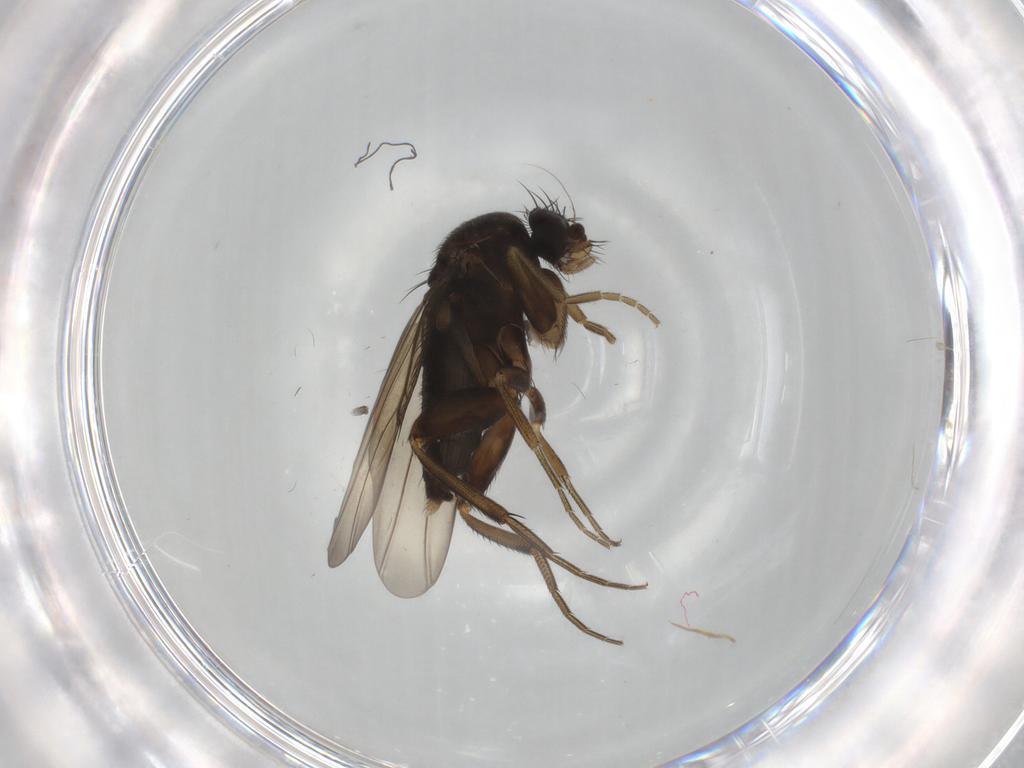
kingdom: Animalia
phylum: Arthropoda
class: Insecta
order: Diptera
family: Phoridae
